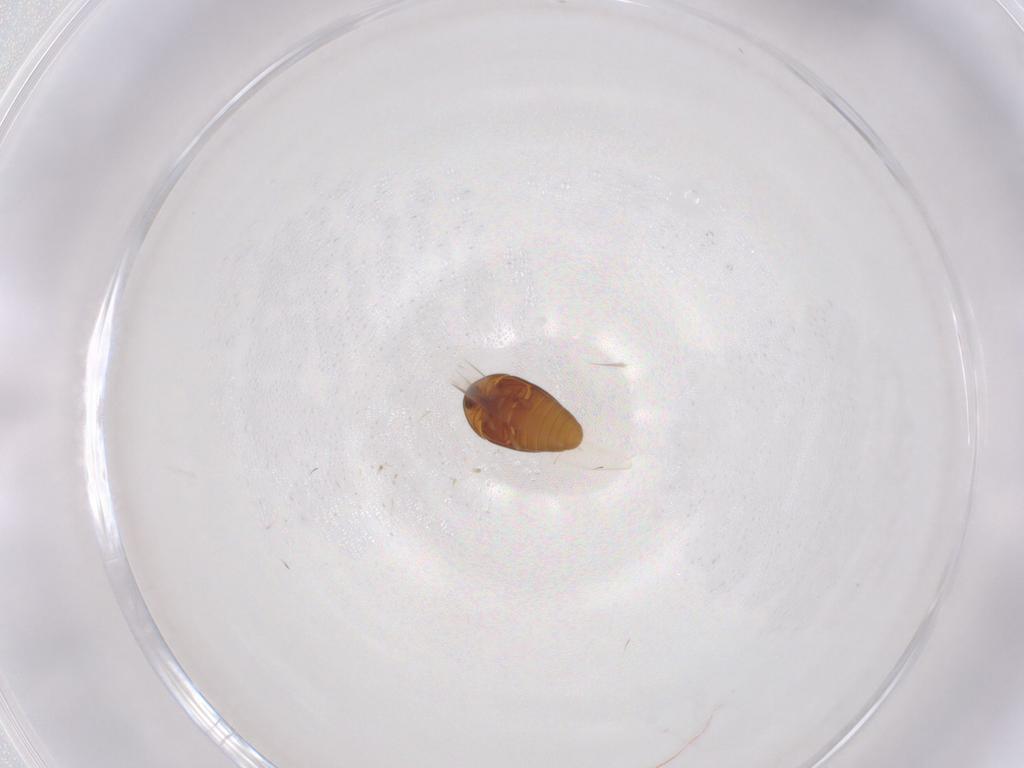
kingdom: Animalia
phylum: Arthropoda
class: Insecta
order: Coleoptera
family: Corylophidae
